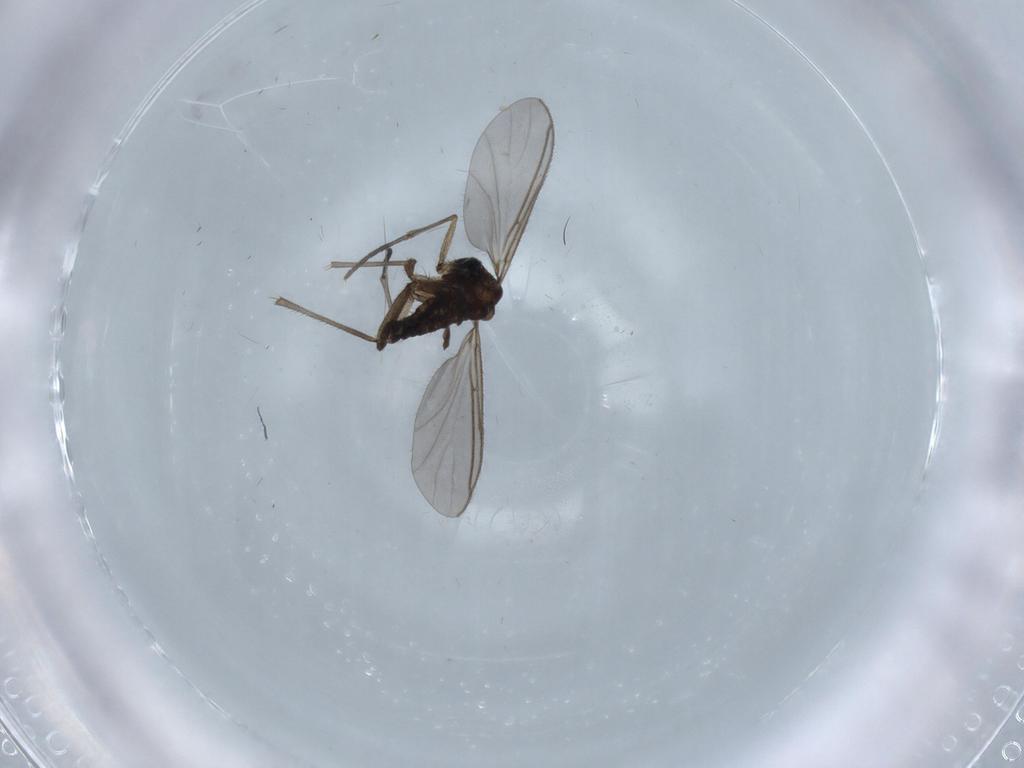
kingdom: Animalia
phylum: Arthropoda
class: Insecta
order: Diptera
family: Sciaridae
